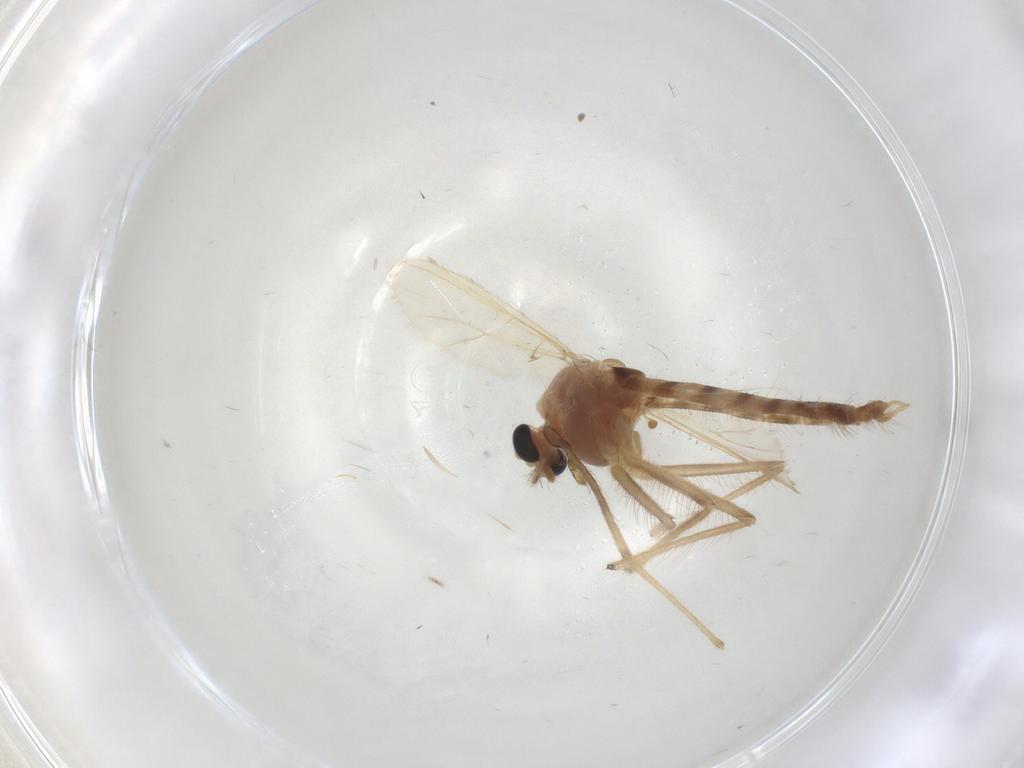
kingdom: Animalia
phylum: Arthropoda
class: Insecta
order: Diptera
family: Chironomidae
